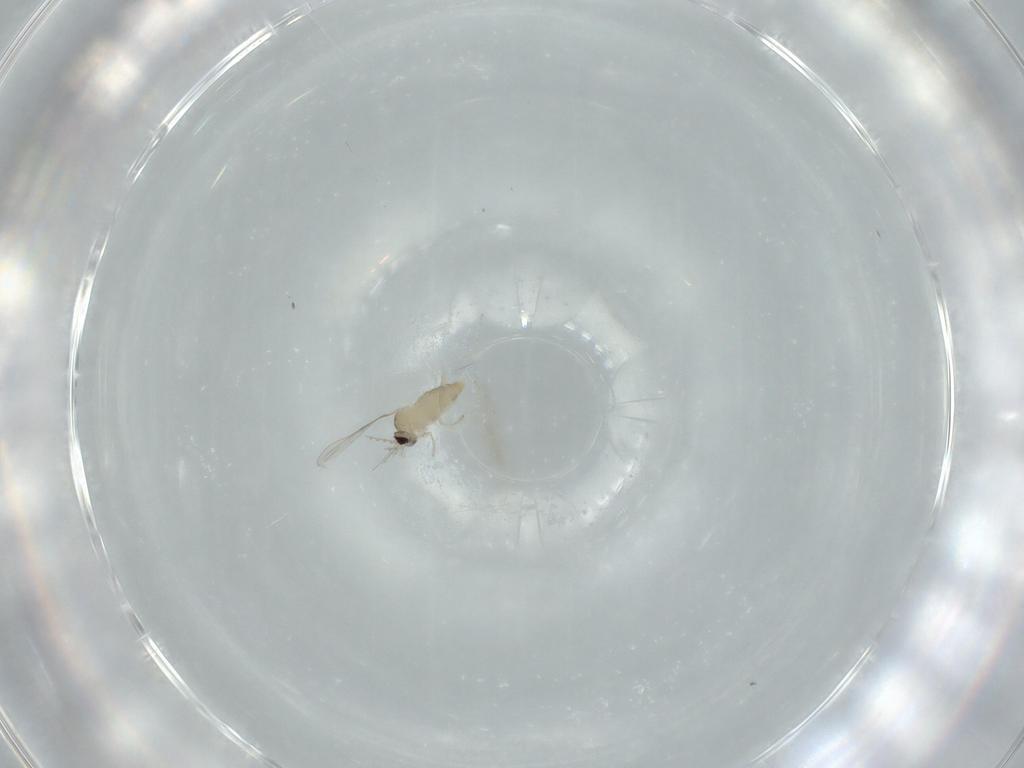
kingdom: Animalia
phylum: Arthropoda
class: Insecta
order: Diptera
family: Cecidomyiidae
